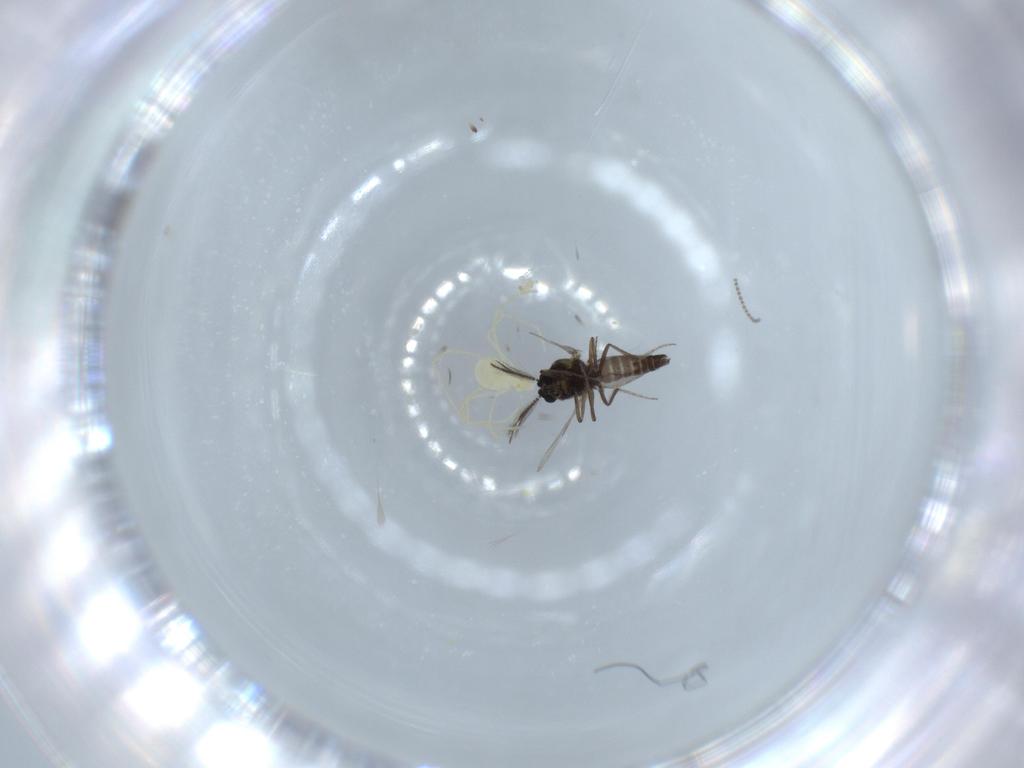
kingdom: Animalia
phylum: Arthropoda
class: Insecta
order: Diptera
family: Cecidomyiidae
